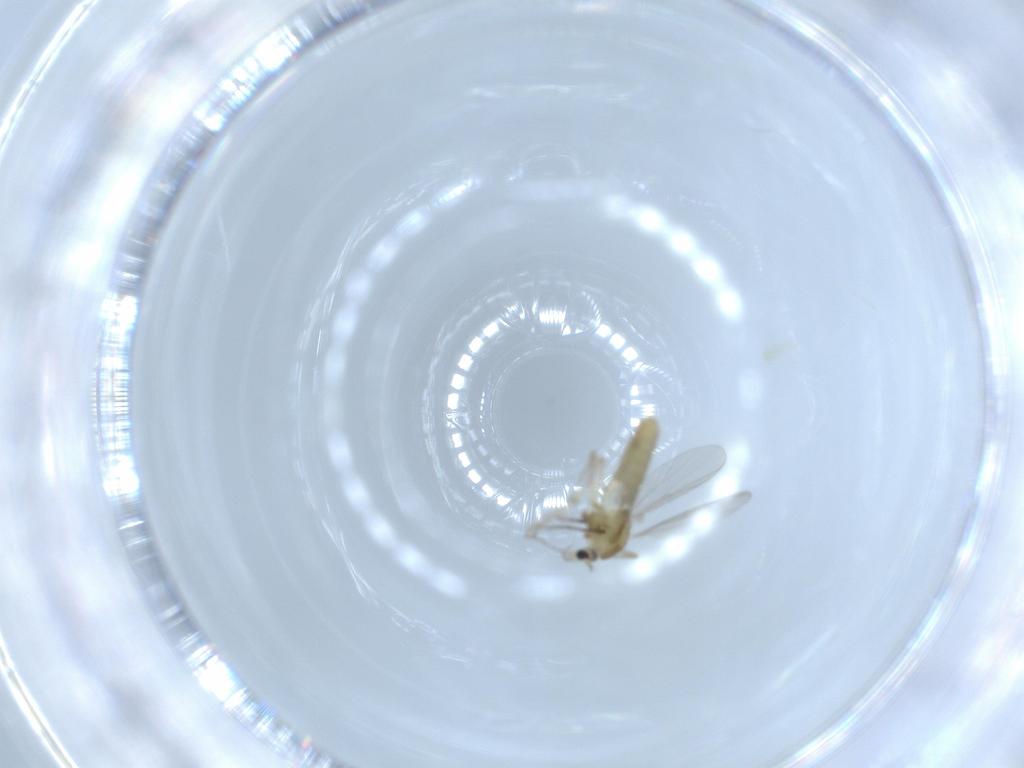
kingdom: Animalia
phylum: Arthropoda
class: Insecta
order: Diptera
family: Chironomidae
